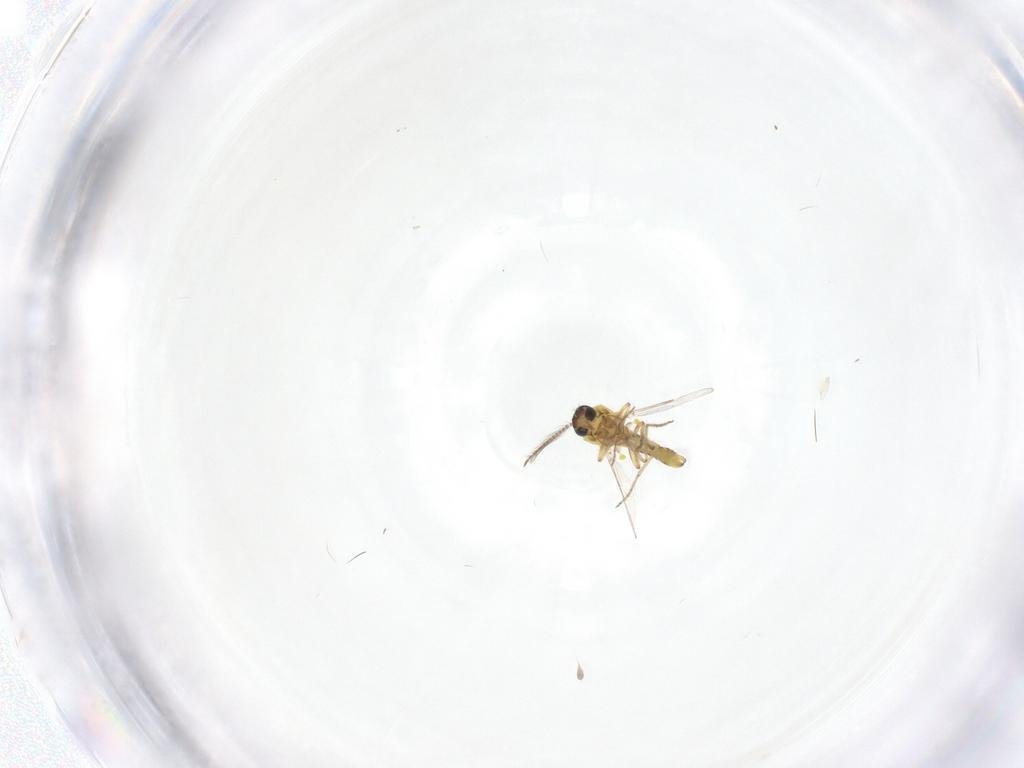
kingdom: Animalia
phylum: Arthropoda
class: Insecta
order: Diptera
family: Ceratopogonidae
